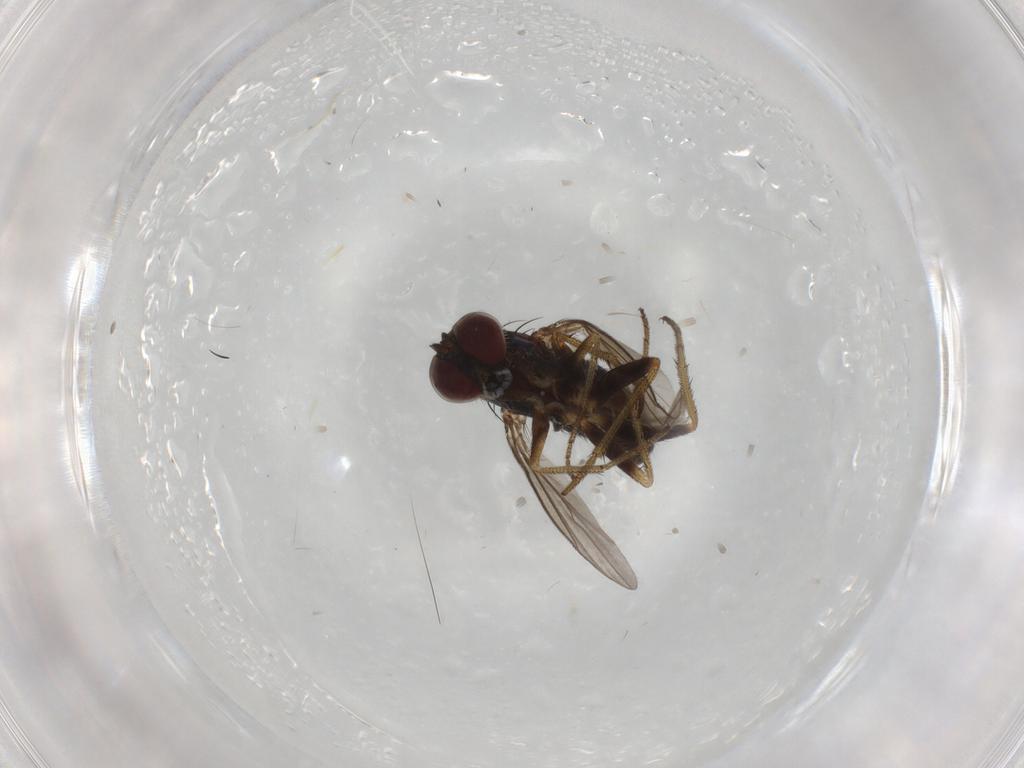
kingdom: Animalia
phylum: Arthropoda
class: Insecta
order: Diptera
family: Chironomidae
